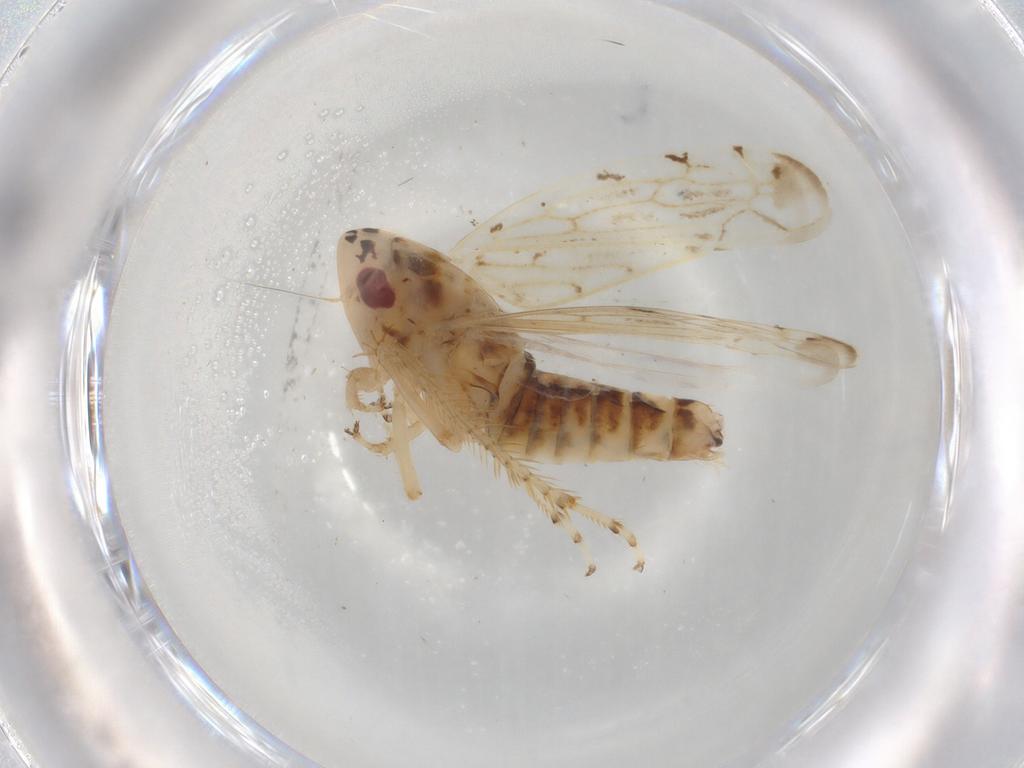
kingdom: Animalia
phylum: Arthropoda
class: Insecta
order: Hemiptera
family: Cicadellidae
